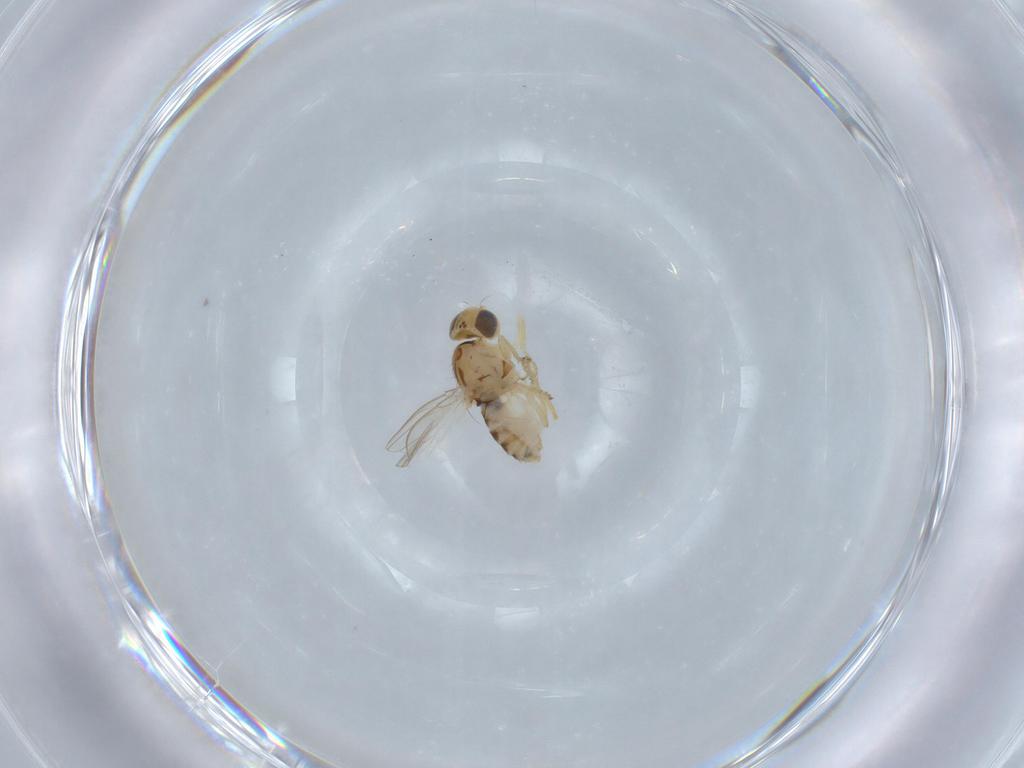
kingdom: Animalia
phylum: Arthropoda
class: Insecta
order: Diptera
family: Chyromyidae
